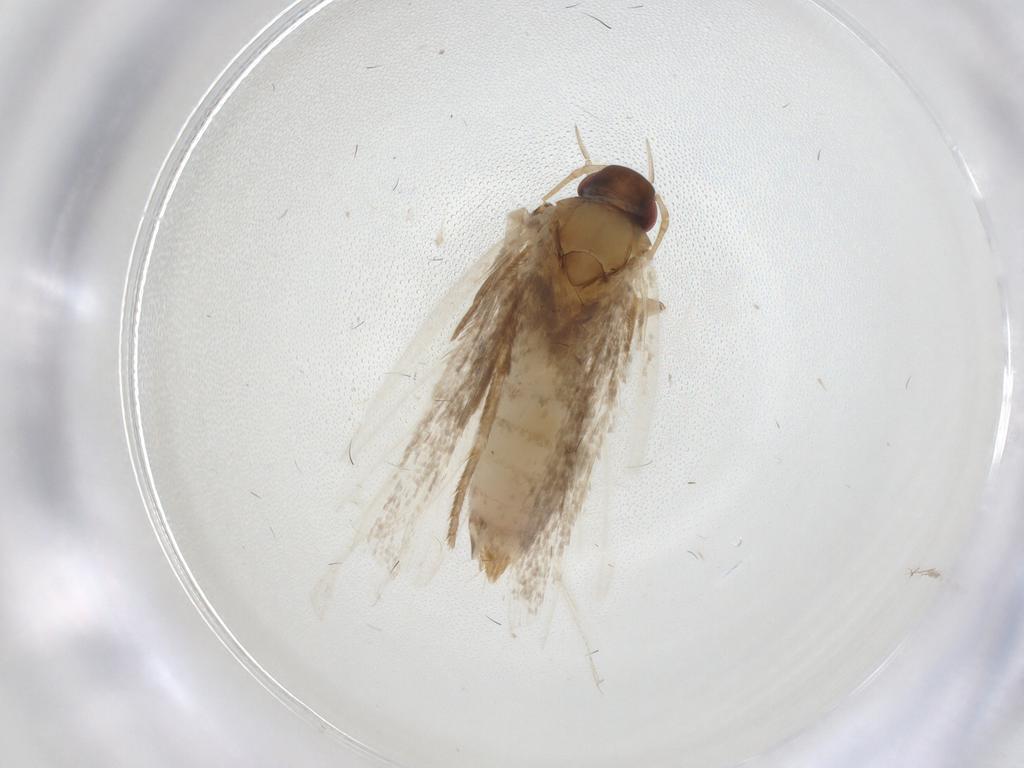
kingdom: Animalia
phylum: Arthropoda
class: Insecta
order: Lepidoptera
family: Gelechiidae
